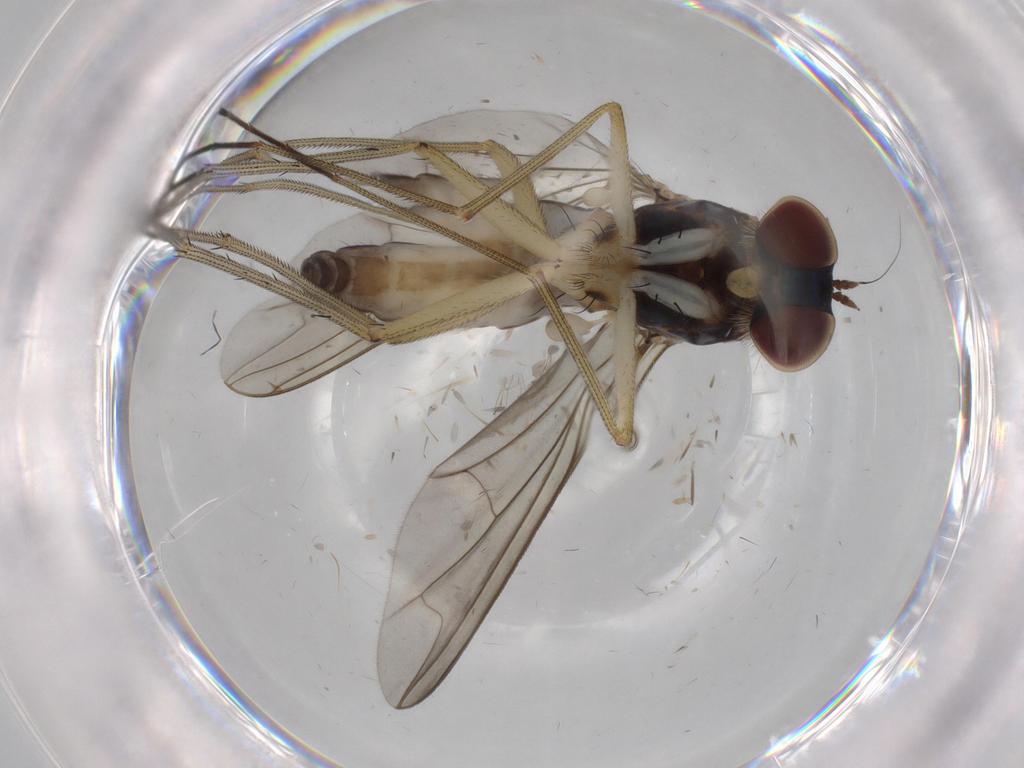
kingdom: Animalia
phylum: Arthropoda
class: Insecta
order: Diptera
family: Dolichopodidae
